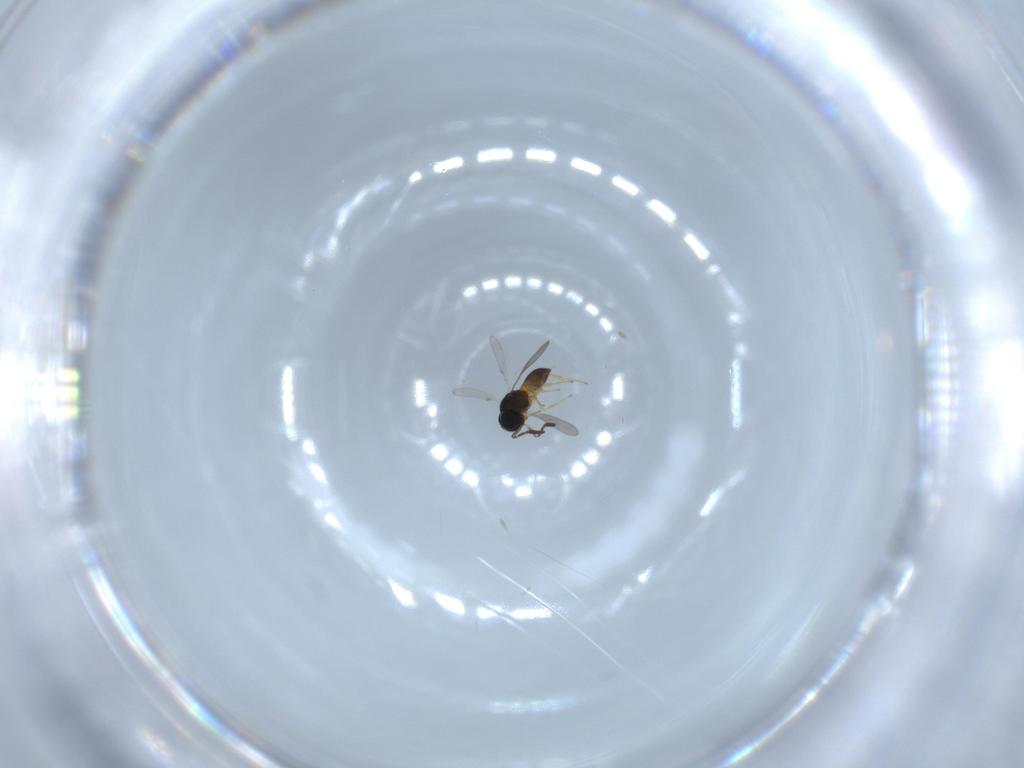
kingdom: Animalia
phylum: Arthropoda
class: Insecta
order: Hymenoptera
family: Scelionidae
